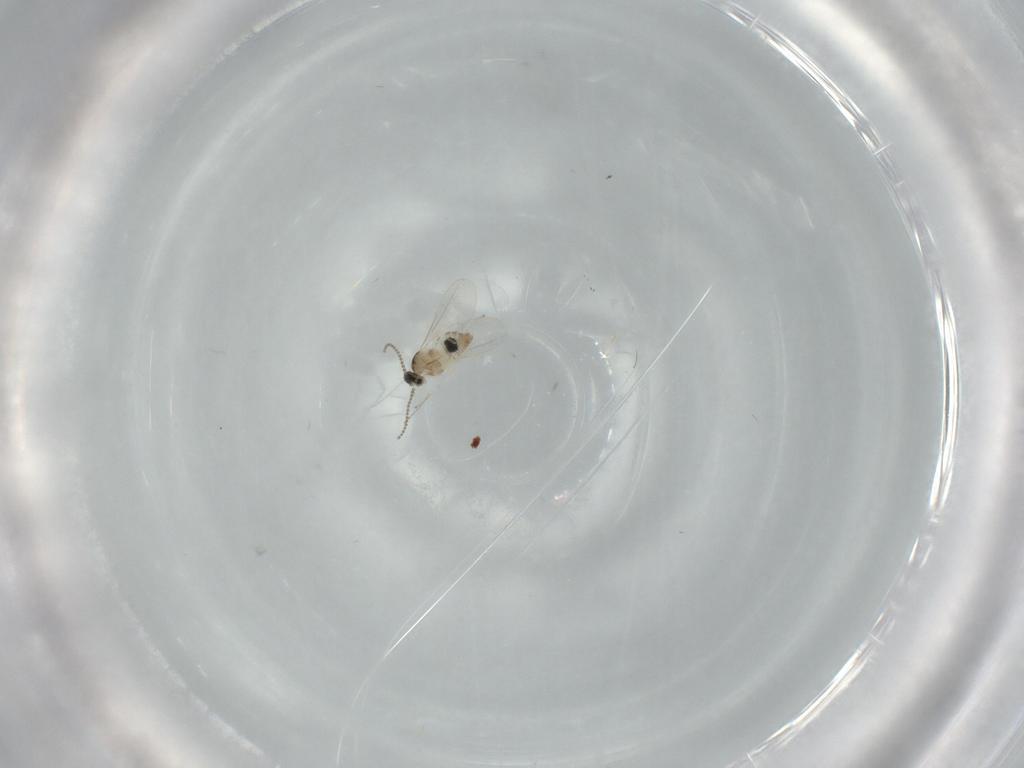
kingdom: Animalia
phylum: Arthropoda
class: Insecta
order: Diptera
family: Cecidomyiidae
